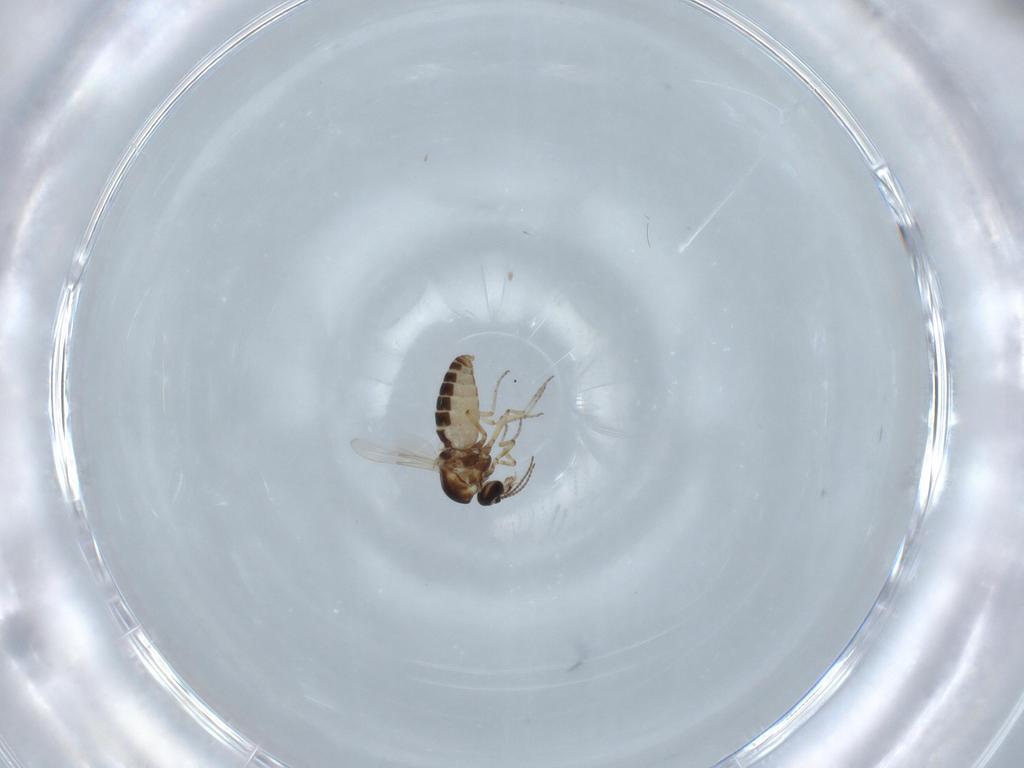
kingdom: Animalia
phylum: Arthropoda
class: Insecta
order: Diptera
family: Ceratopogonidae
